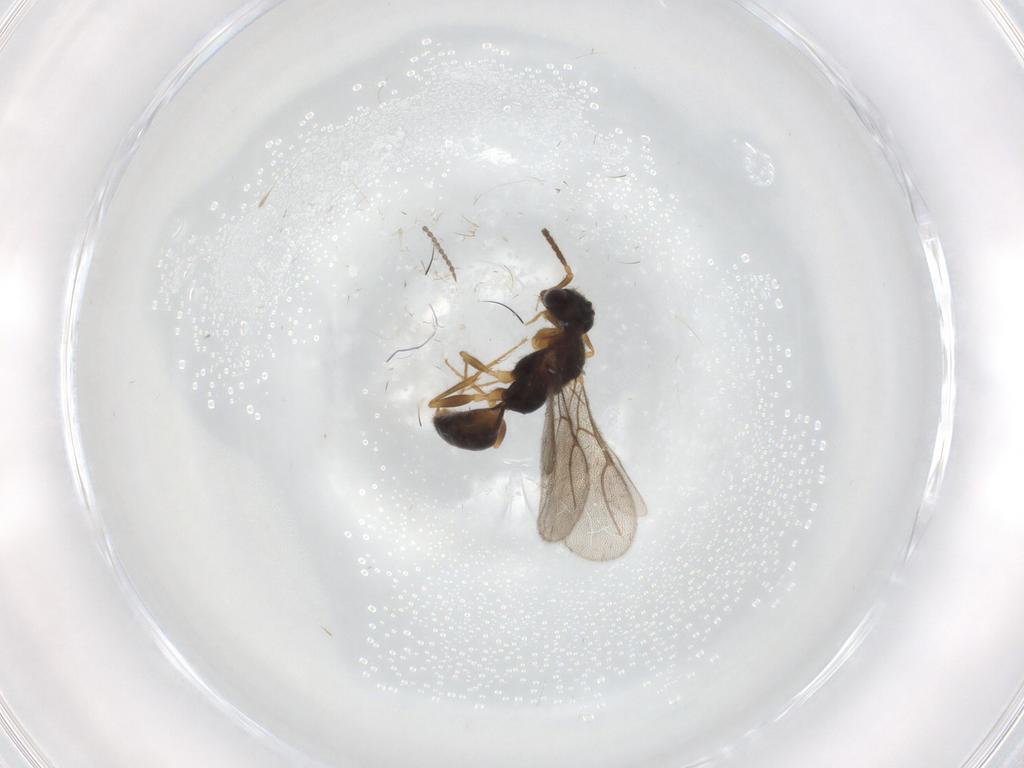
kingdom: Animalia
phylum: Arthropoda
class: Insecta
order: Hymenoptera
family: Bethylidae
